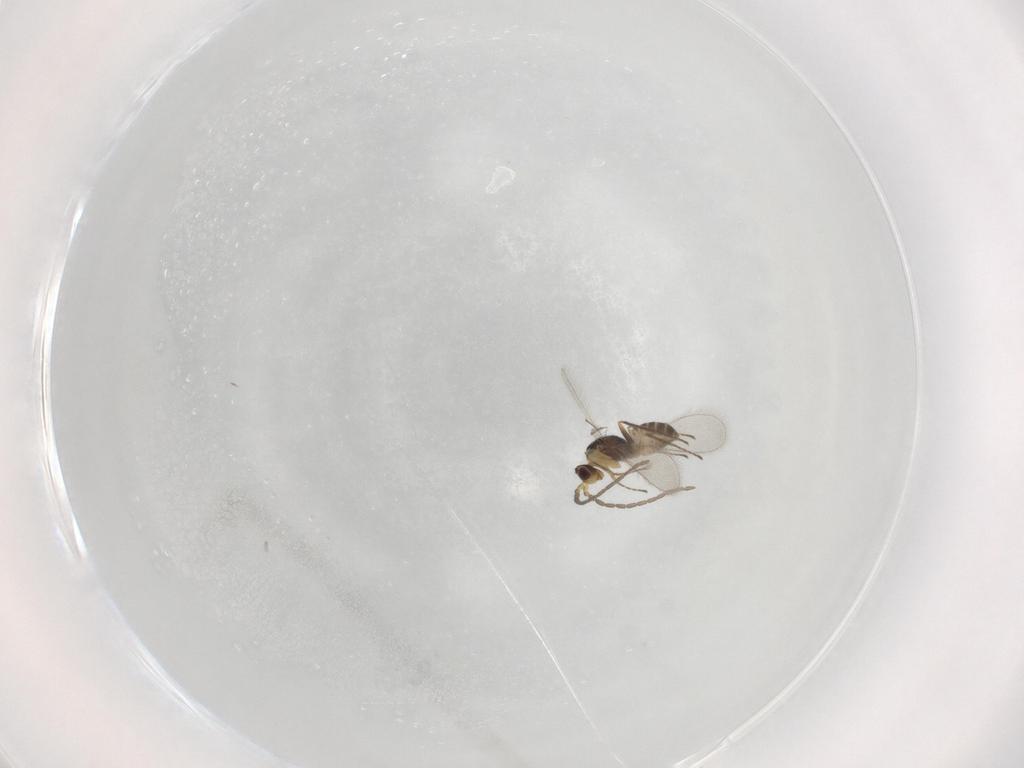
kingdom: Animalia
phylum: Arthropoda
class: Insecta
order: Hymenoptera
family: Mymaridae
